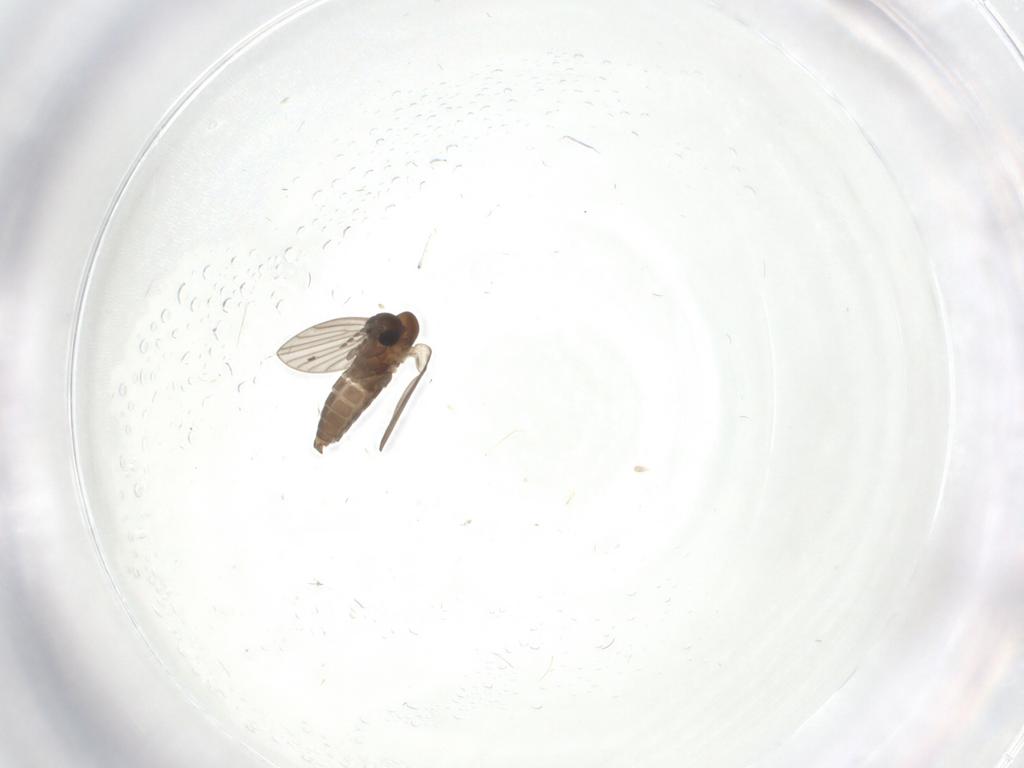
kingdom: Animalia
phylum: Arthropoda
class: Insecta
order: Diptera
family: Cecidomyiidae
